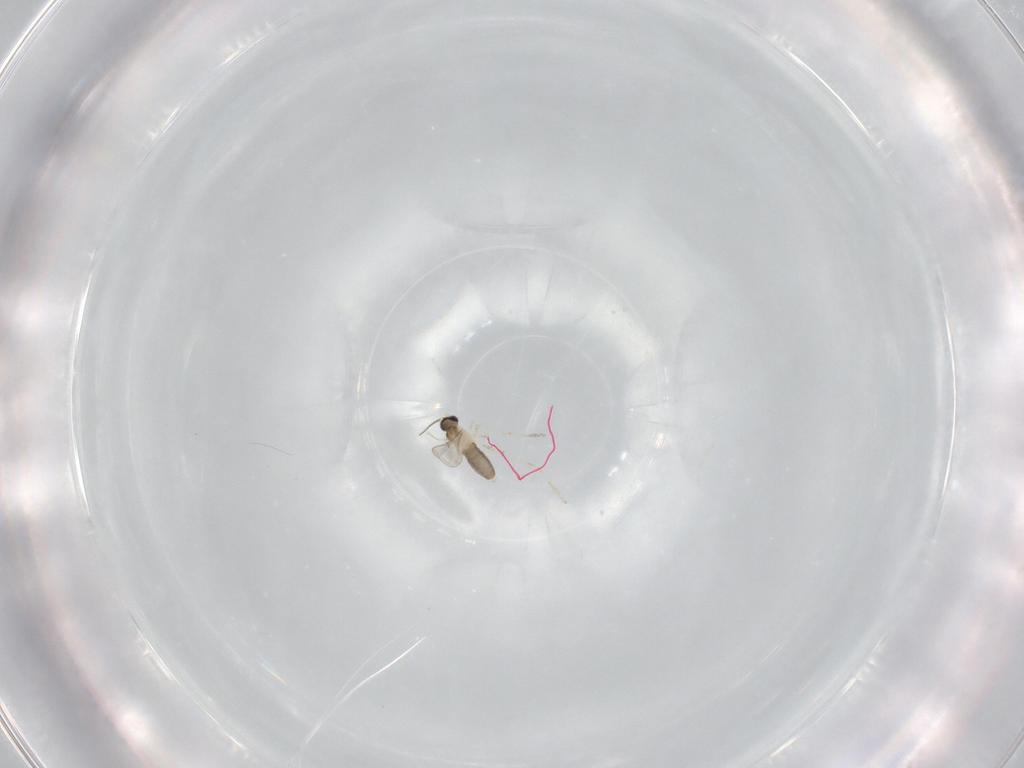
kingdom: Animalia
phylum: Arthropoda
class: Insecta
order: Diptera
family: Cecidomyiidae
